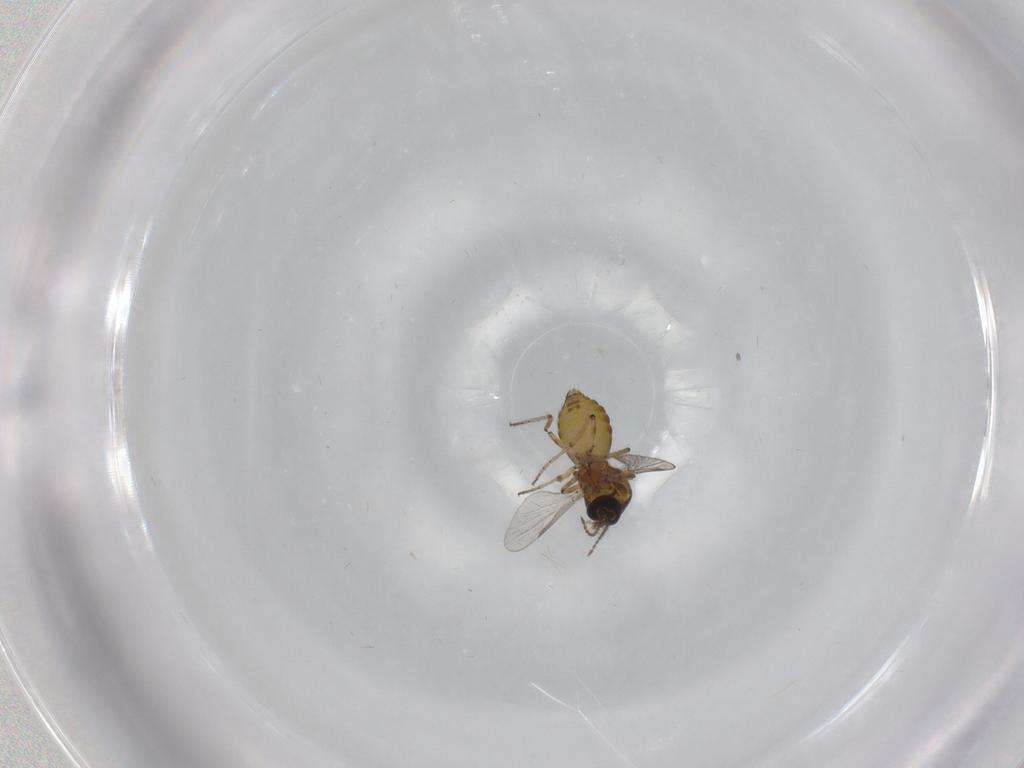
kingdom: Animalia
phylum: Arthropoda
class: Insecta
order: Diptera
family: Ceratopogonidae
